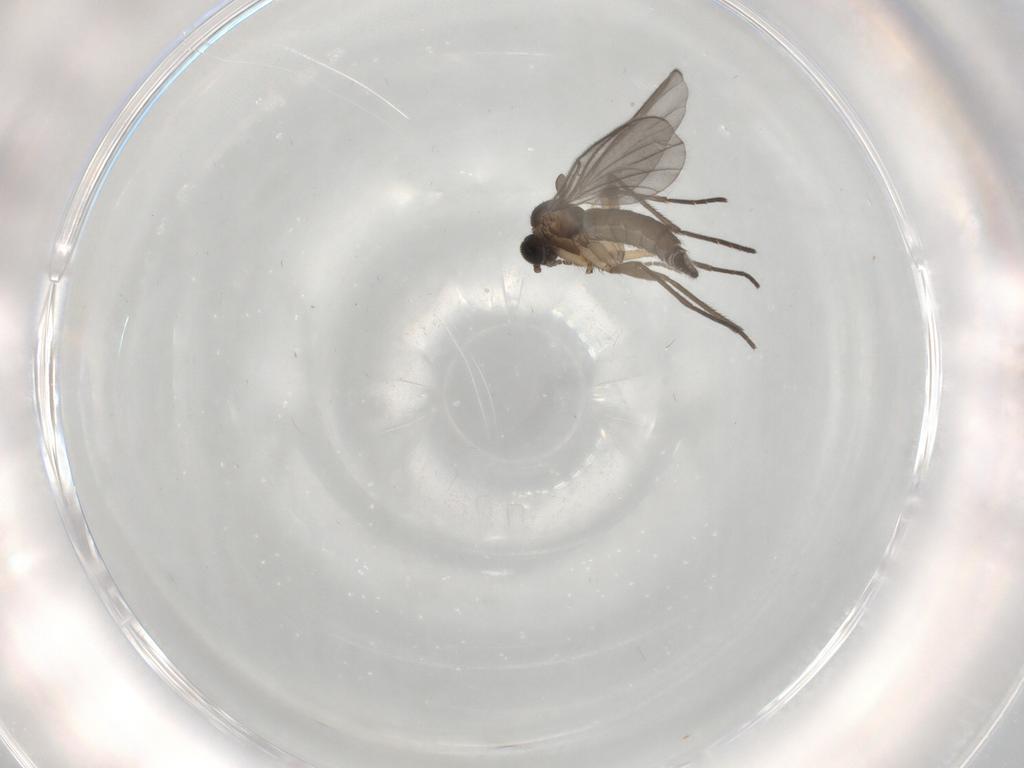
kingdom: Animalia
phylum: Arthropoda
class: Insecta
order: Diptera
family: Sciaridae
